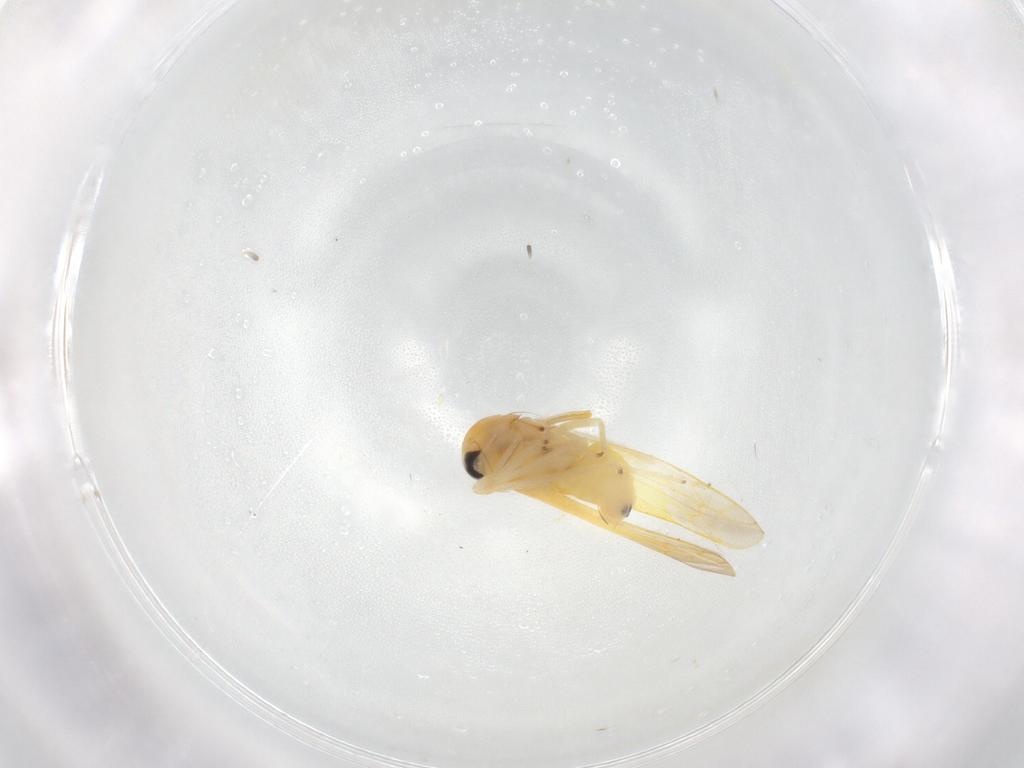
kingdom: Animalia
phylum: Arthropoda
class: Insecta
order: Hemiptera
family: Cicadellidae
